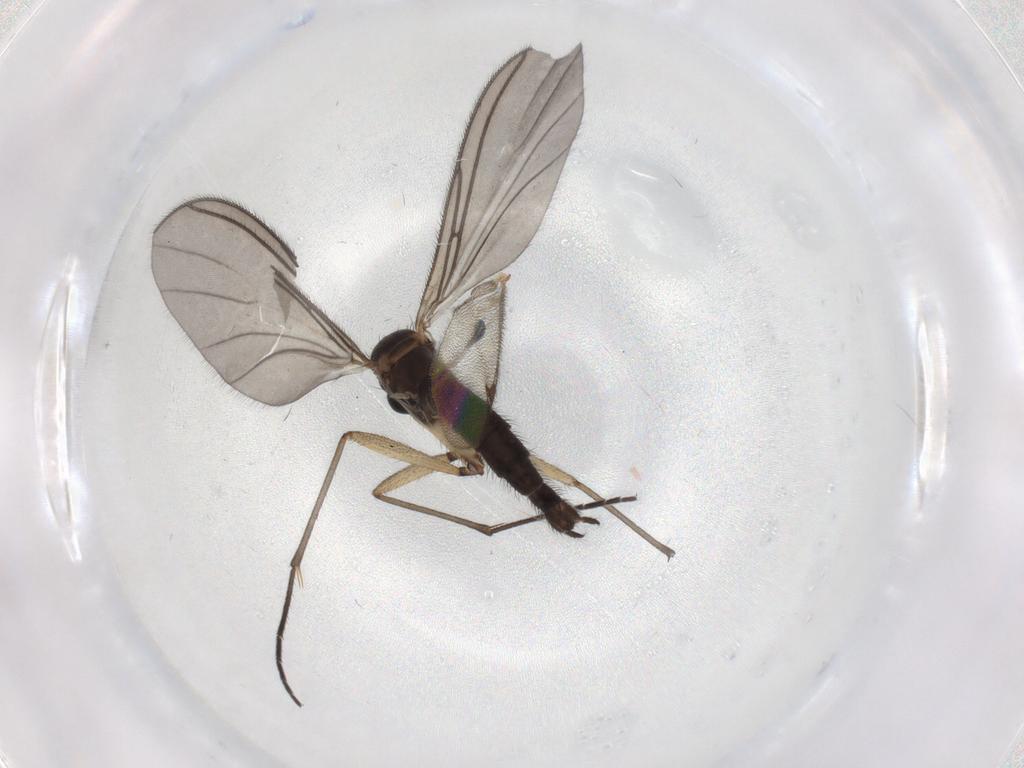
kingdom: Animalia
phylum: Arthropoda
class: Insecta
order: Diptera
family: Sciaridae
